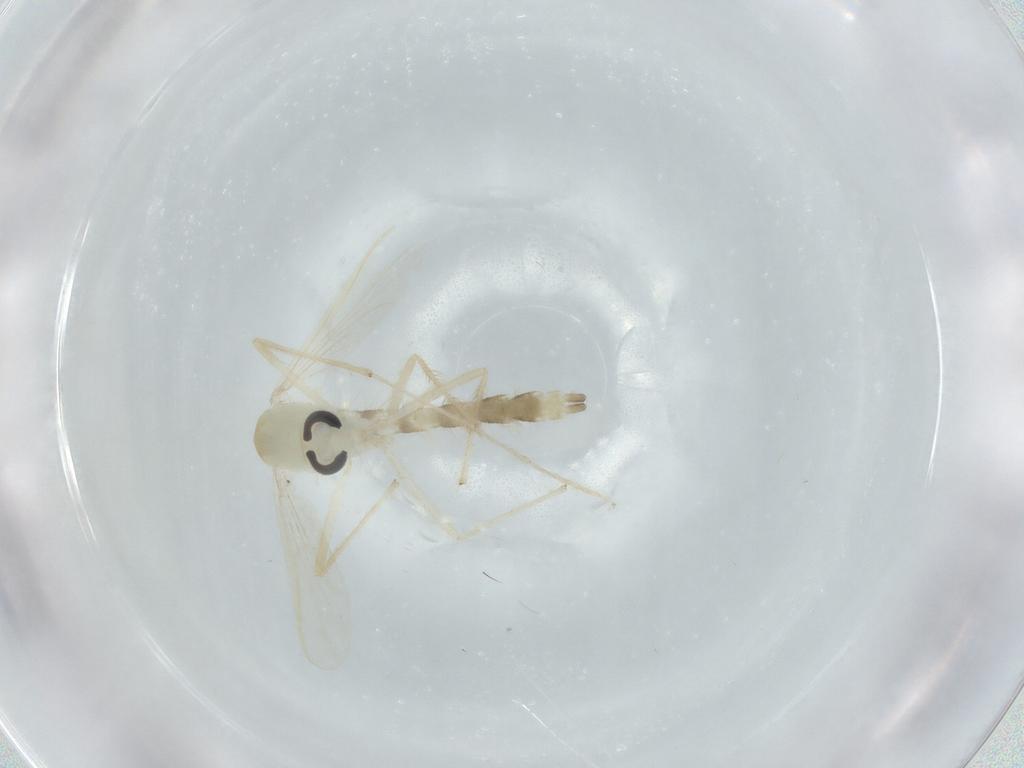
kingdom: Animalia
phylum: Arthropoda
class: Insecta
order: Diptera
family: Chironomidae
